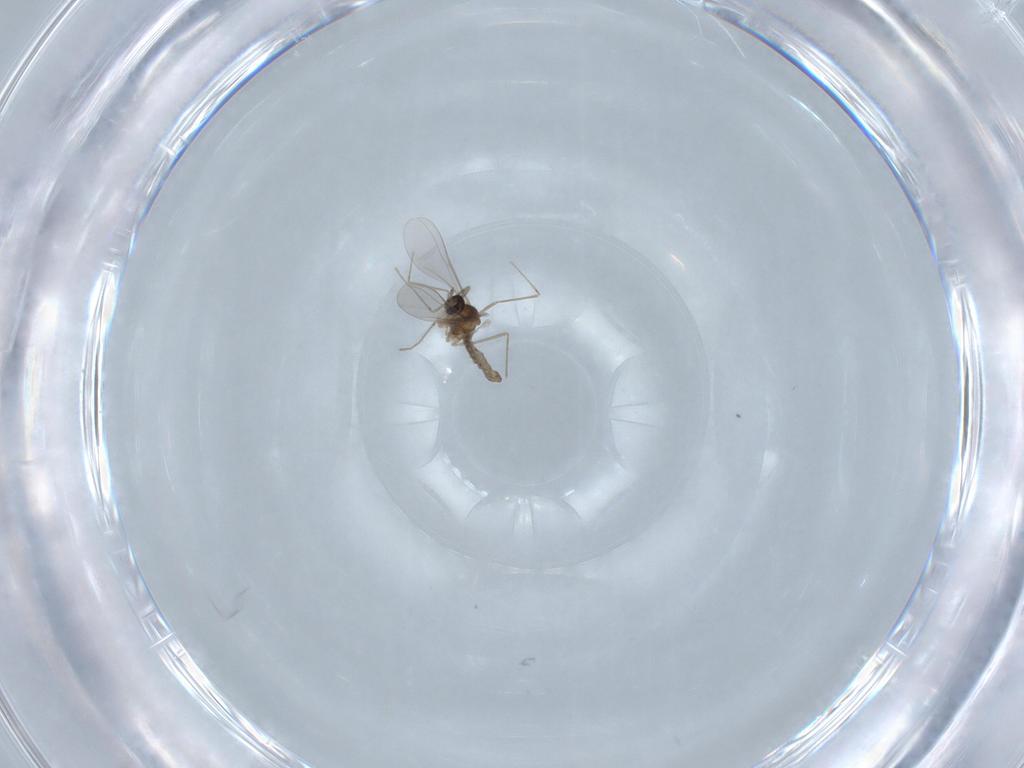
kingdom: Animalia
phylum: Arthropoda
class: Insecta
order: Diptera
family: Cecidomyiidae
